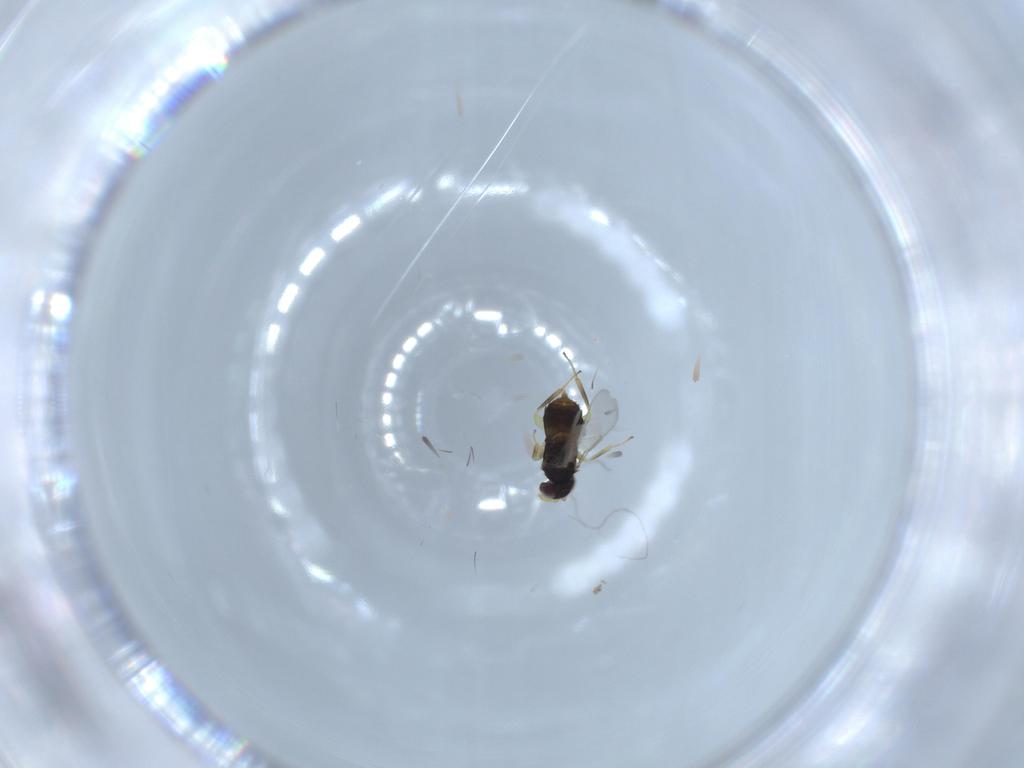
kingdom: Animalia
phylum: Arthropoda
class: Insecta
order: Hymenoptera
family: Formicidae
